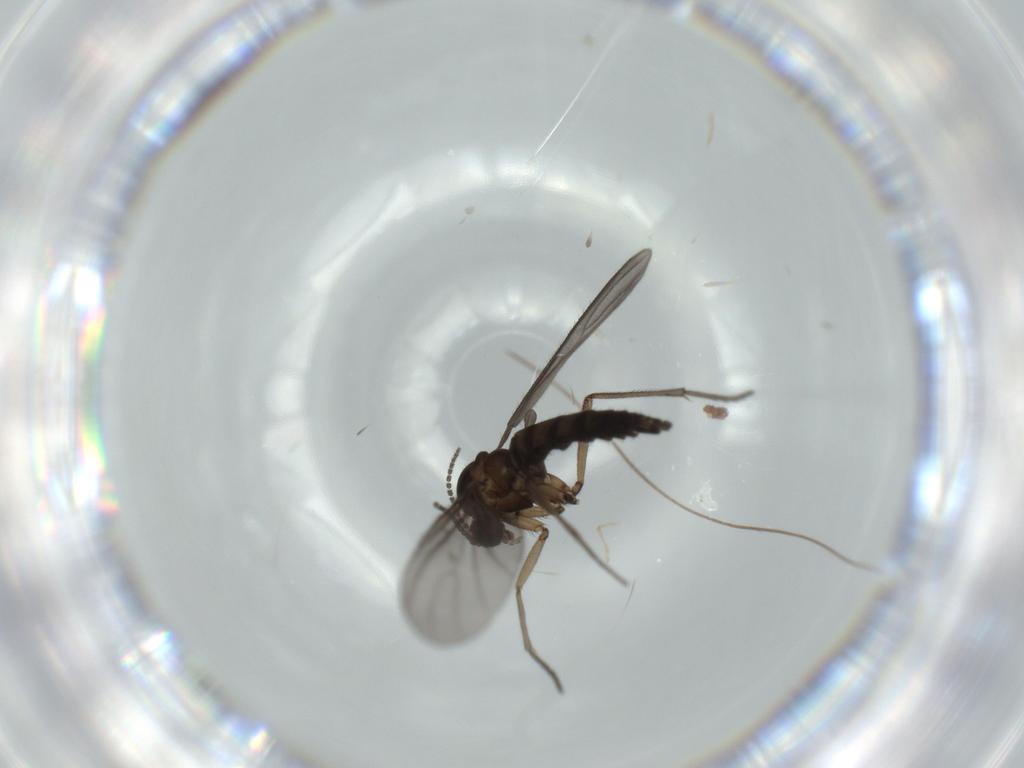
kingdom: Animalia
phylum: Arthropoda
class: Insecta
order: Diptera
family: Sciaridae
